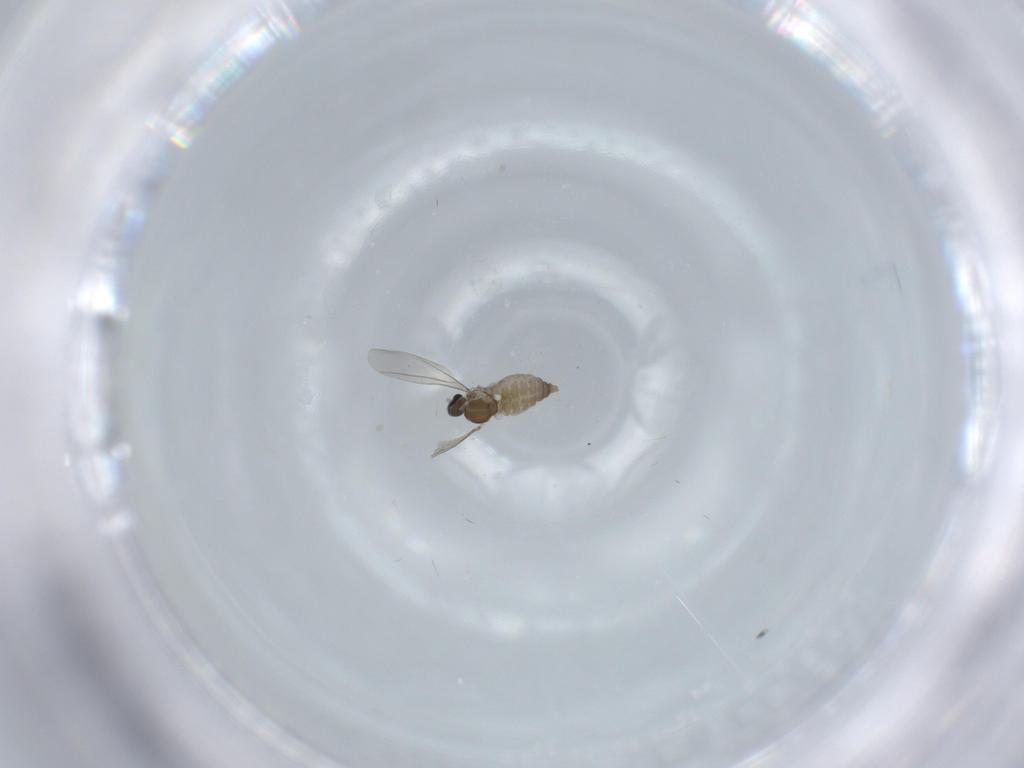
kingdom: Animalia
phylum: Arthropoda
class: Insecta
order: Diptera
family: Cecidomyiidae
